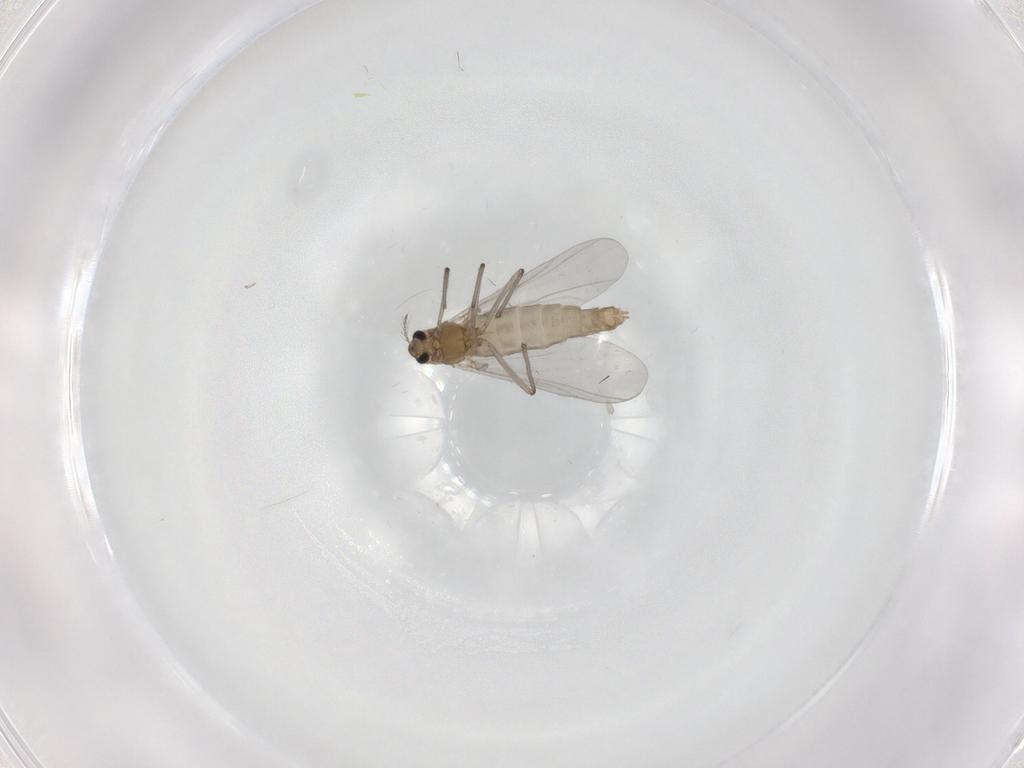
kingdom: Animalia
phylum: Arthropoda
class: Insecta
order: Diptera
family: Chironomidae
